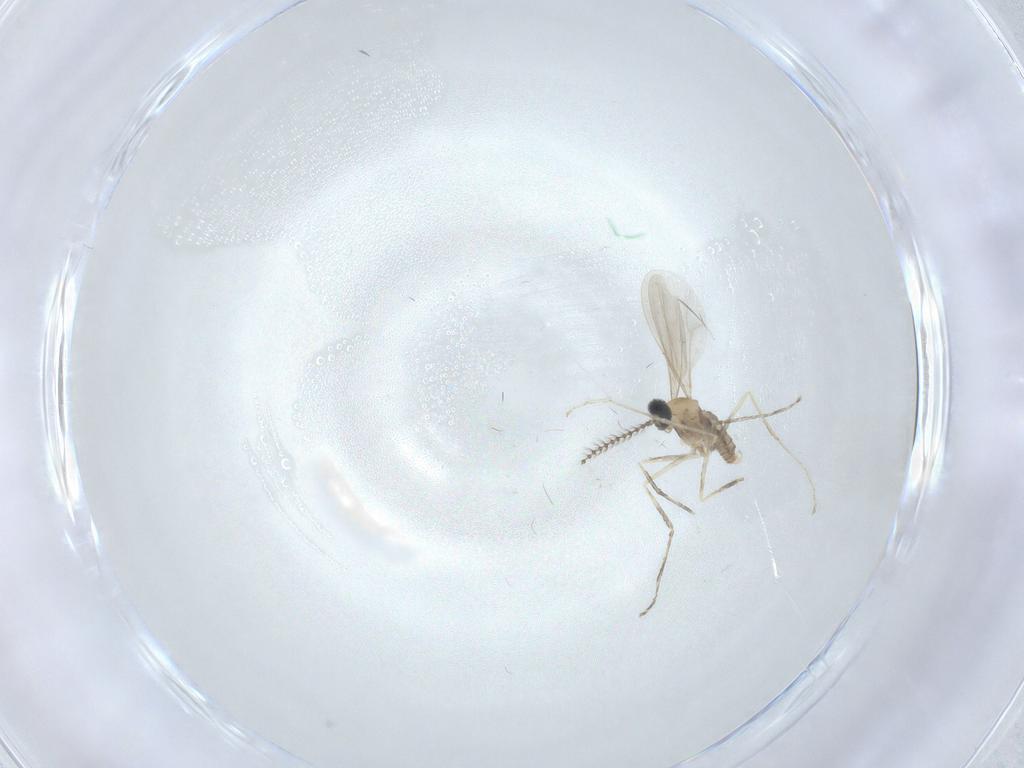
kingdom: Animalia
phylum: Arthropoda
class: Insecta
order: Diptera
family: Cecidomyiidae
